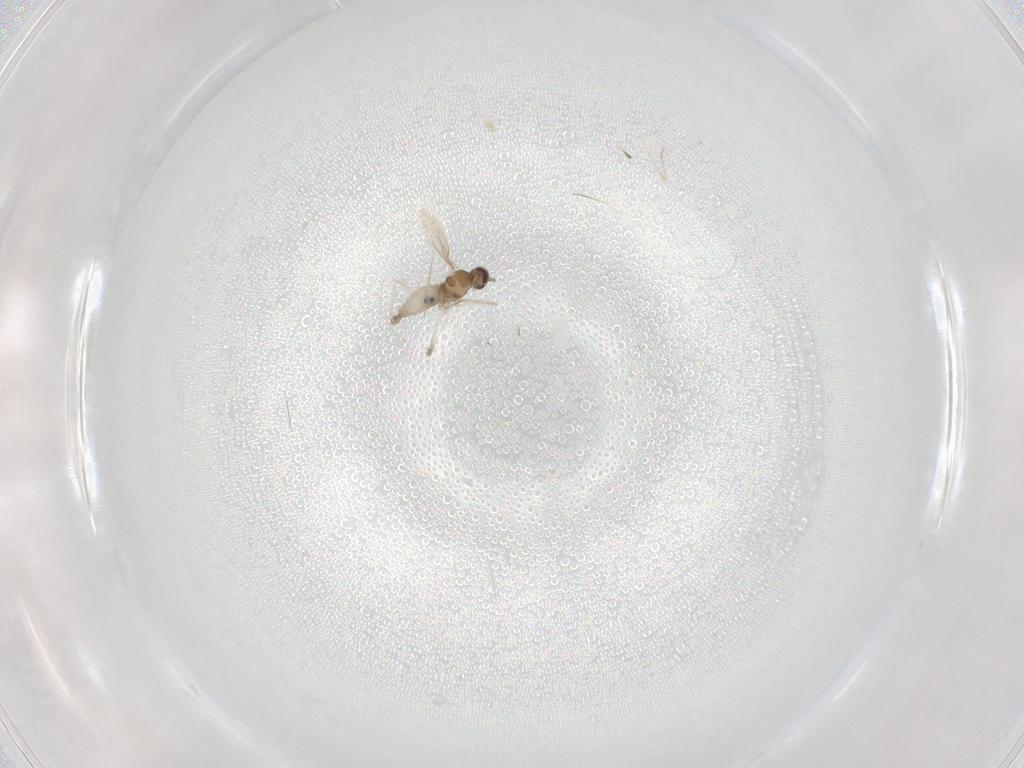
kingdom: Animalia
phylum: Arthropoda
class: Insecta
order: Diptera
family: Cecidomyiidae
